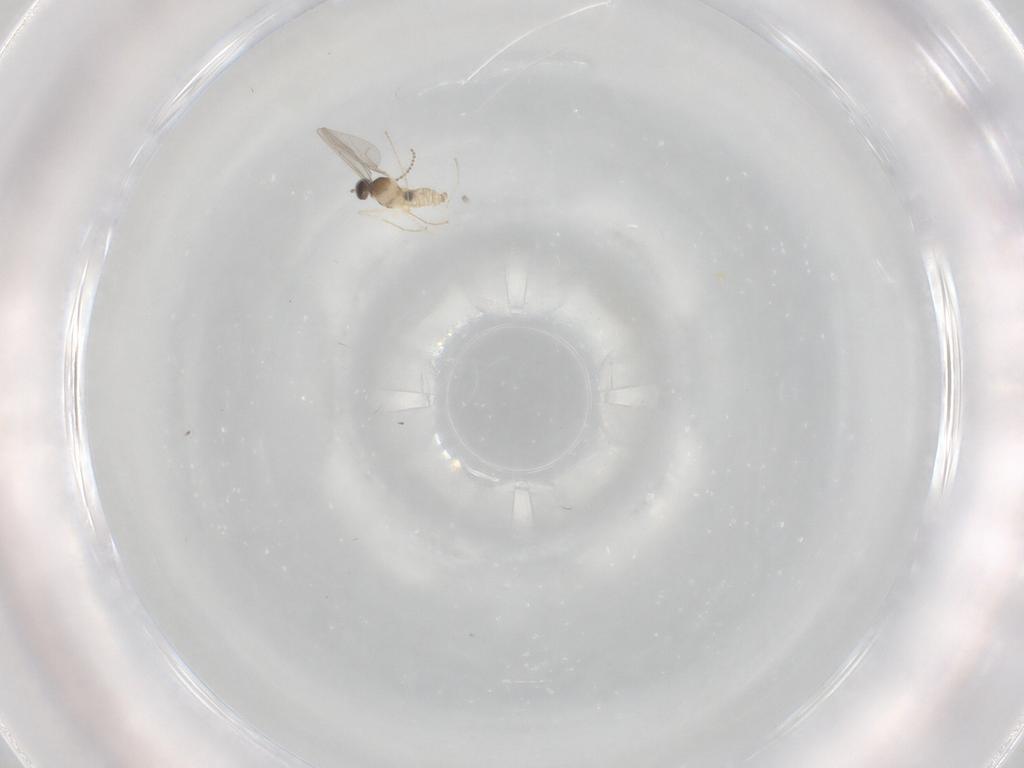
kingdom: Animalia
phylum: Arthropoda
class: Insecta
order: Diptera
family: Cecidomyiidae
